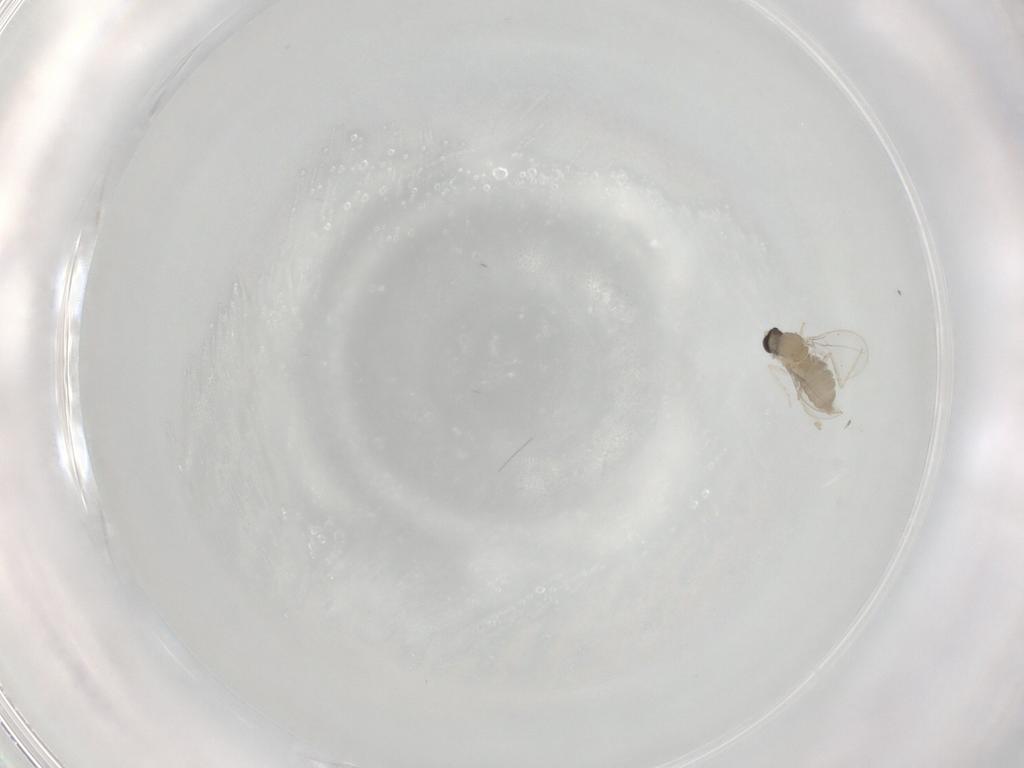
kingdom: Animalia
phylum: Arthropoda
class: Insecta
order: Diptera
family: Cecidomyiidae
